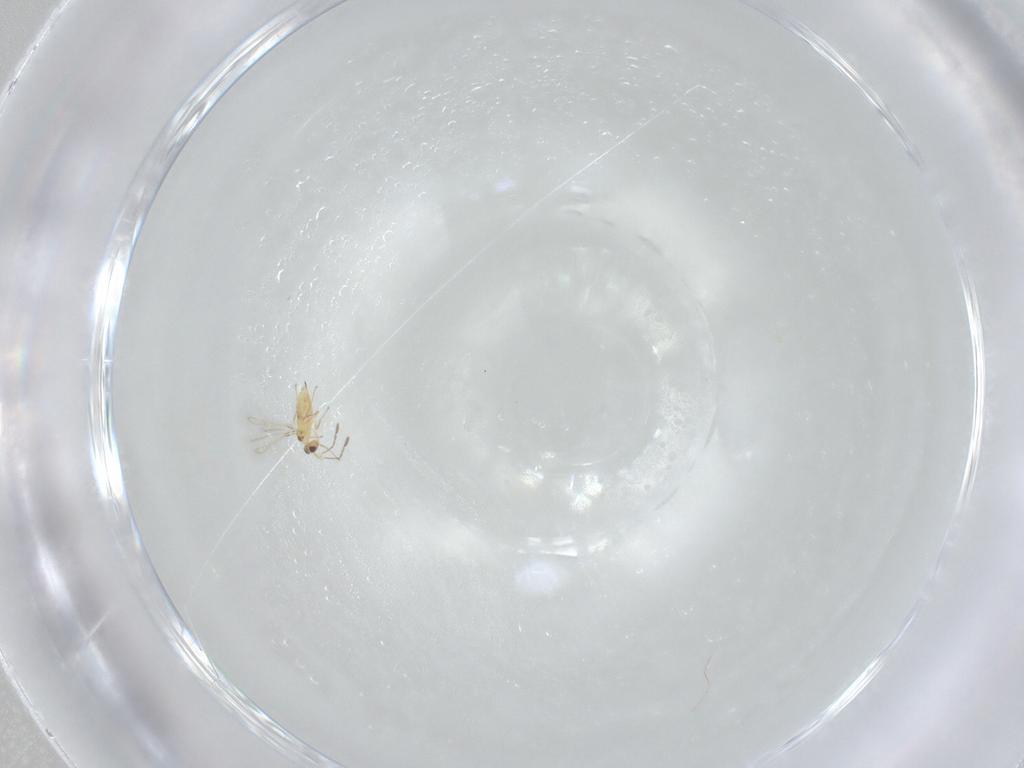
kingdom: Animalia
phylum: Arthropoda
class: Insecta
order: Hymenoptera
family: Mymaridae
